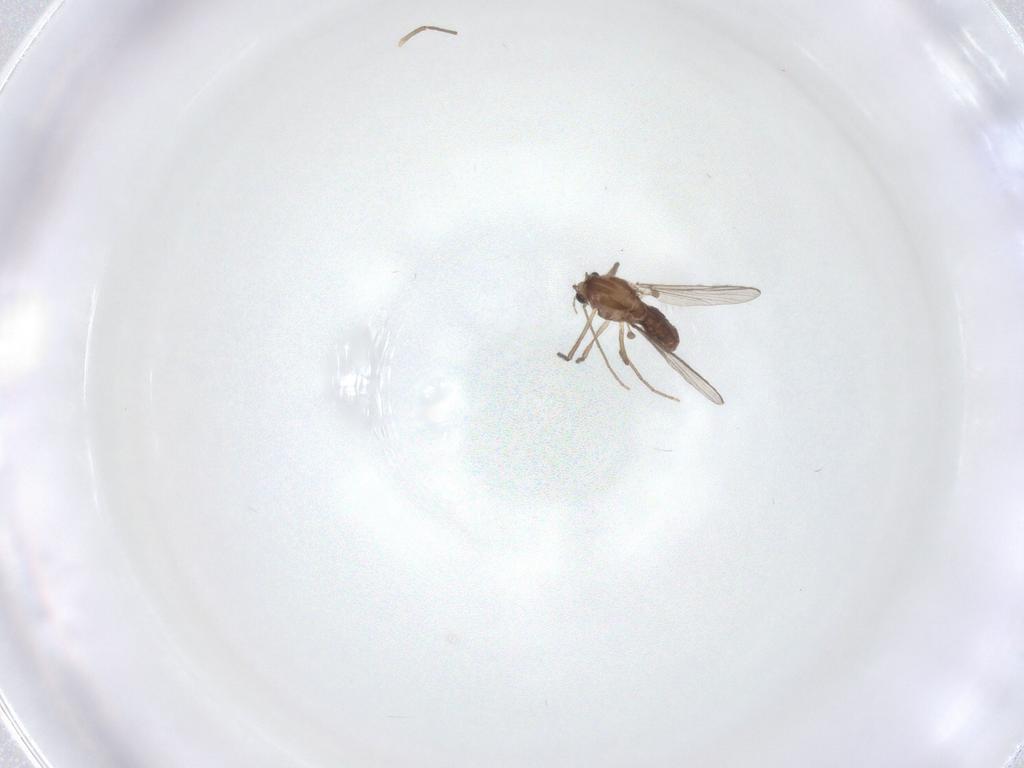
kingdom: Animalia
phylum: Arthropoda
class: Insecta
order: Diptera
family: Chironomidae
